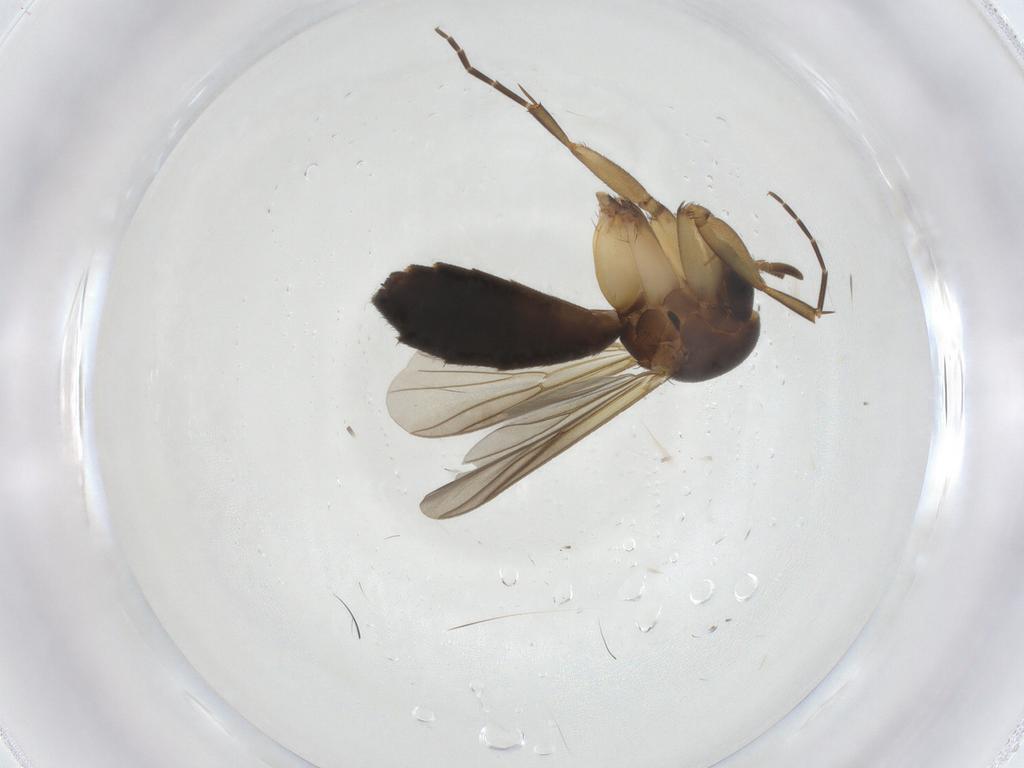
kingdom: Animalia
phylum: Arthropoda
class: Insecta
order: Diptera
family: Mycetophilidae
